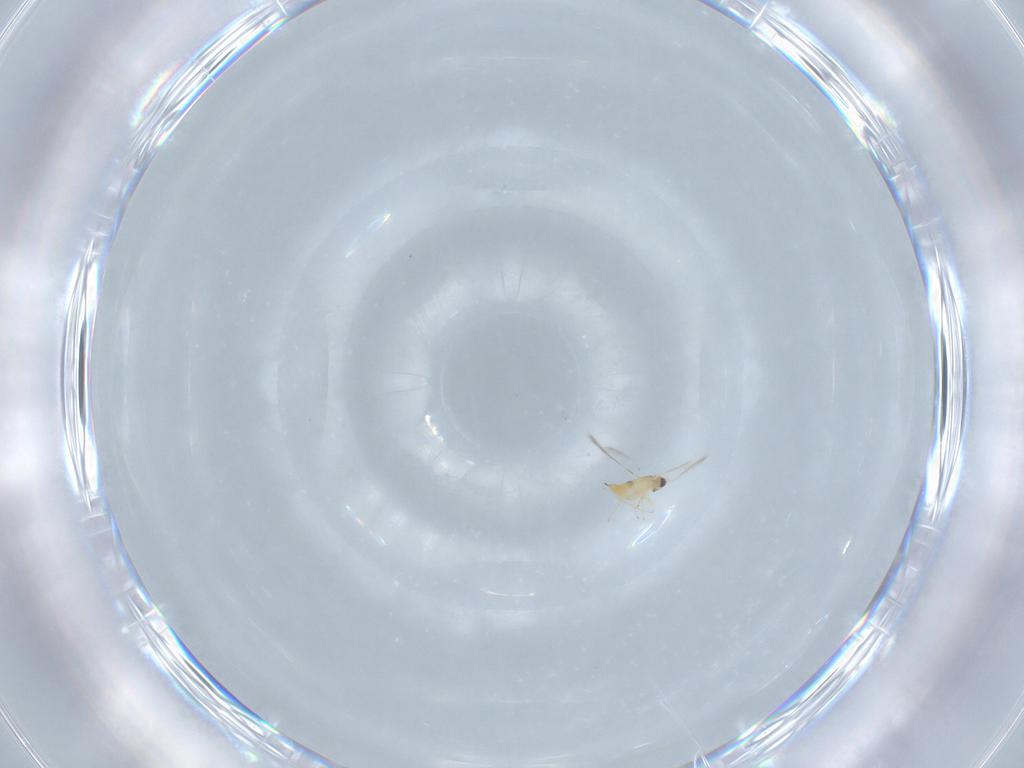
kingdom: Animalia
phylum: Arthropoda
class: Insecta
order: Hymenoptera
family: Mymaridae
